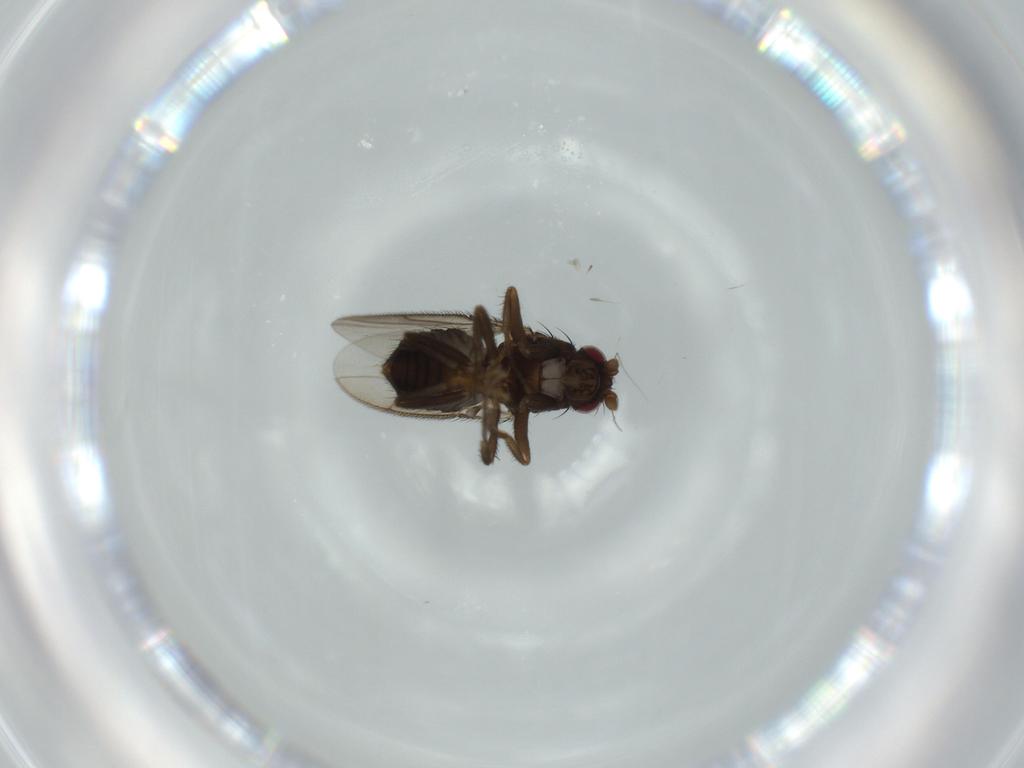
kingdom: Animalia
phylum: Arthropoda
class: Insecta
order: Diptera
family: Sphaeroceridae
